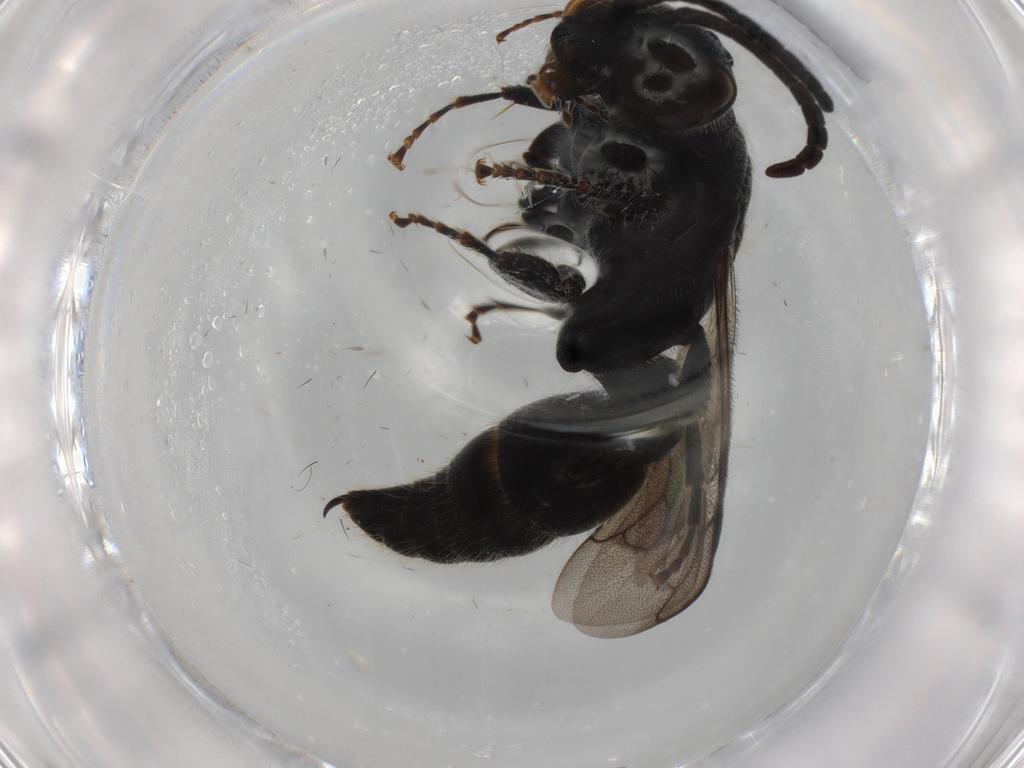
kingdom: Animalia
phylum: Arthropoda
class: Insecta
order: Hymenoptera
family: Tiphiidae
